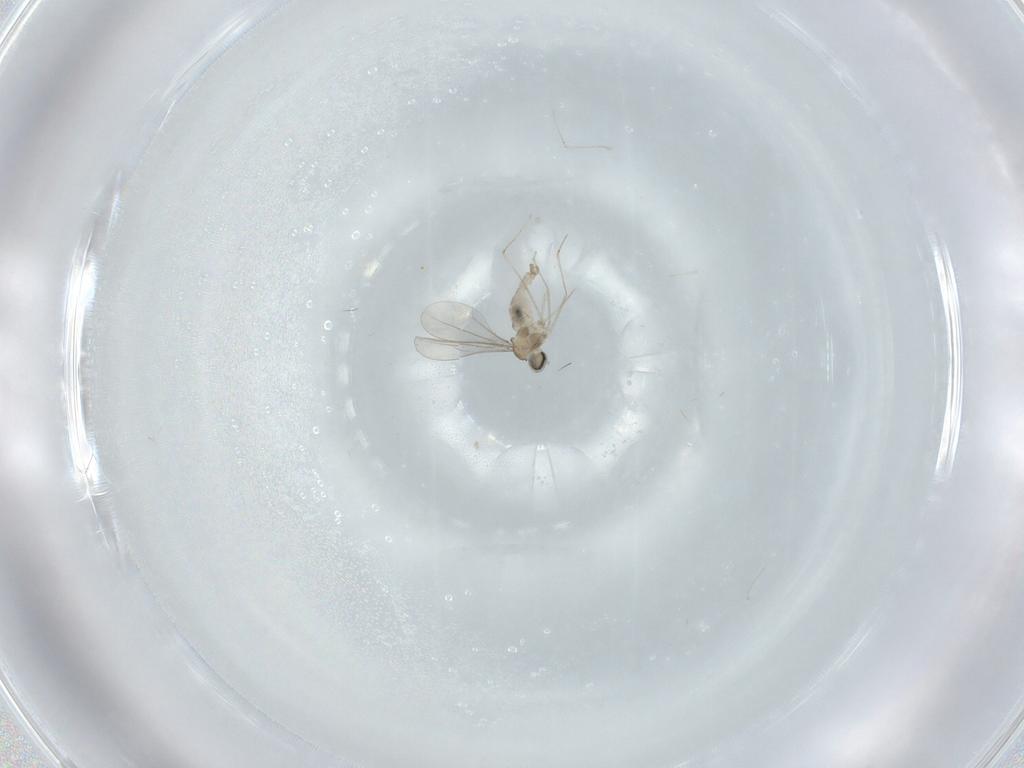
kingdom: Animalia
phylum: Arthropoda
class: Insecta
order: Diptera
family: Cecidomyiidae
